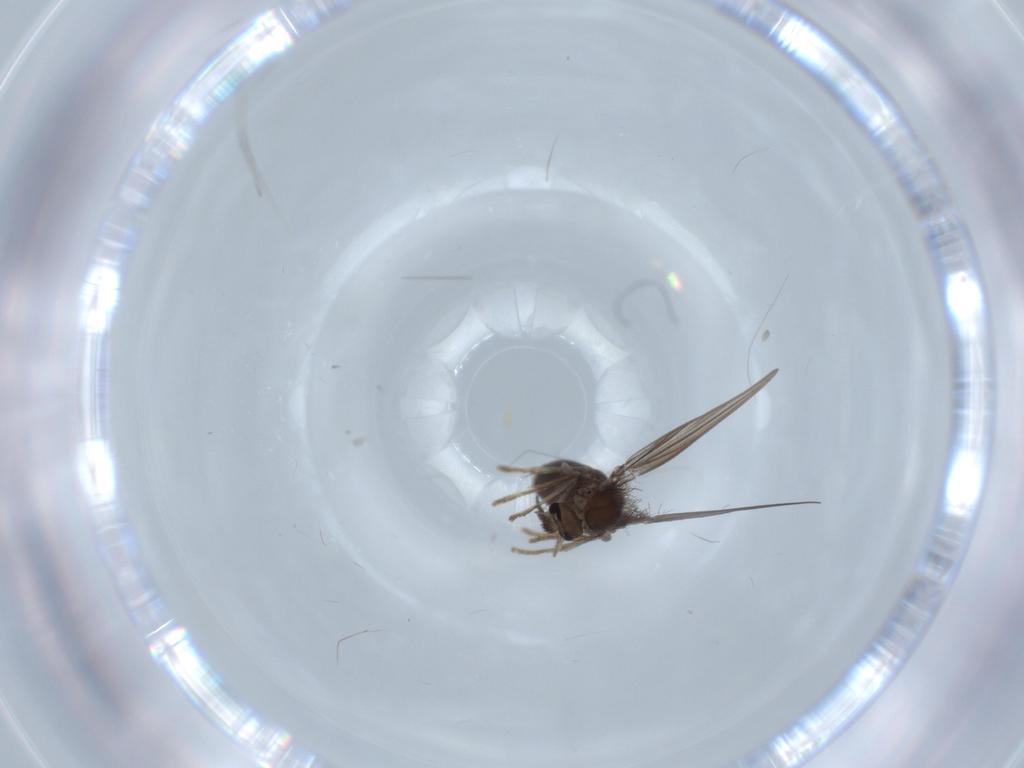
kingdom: Animalia
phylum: Arthropoda
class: Insecta
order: Diptera
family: Psychodidae
